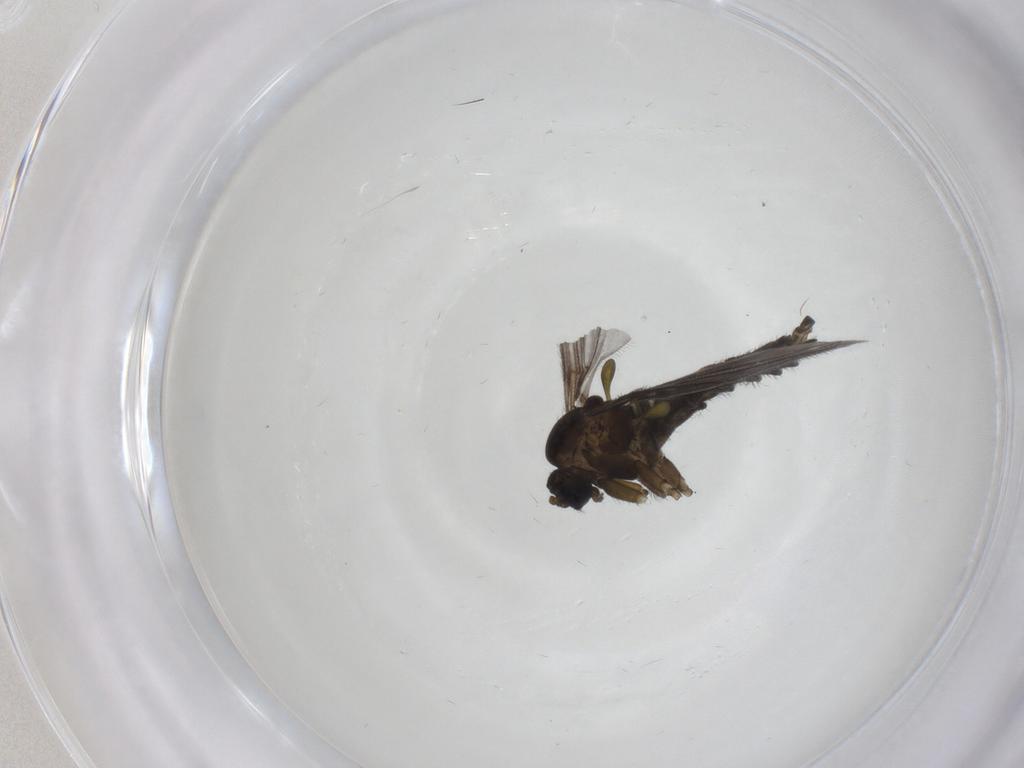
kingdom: Animalia
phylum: Arthropoda
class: Insecta
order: Diptera
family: Sciaridae
